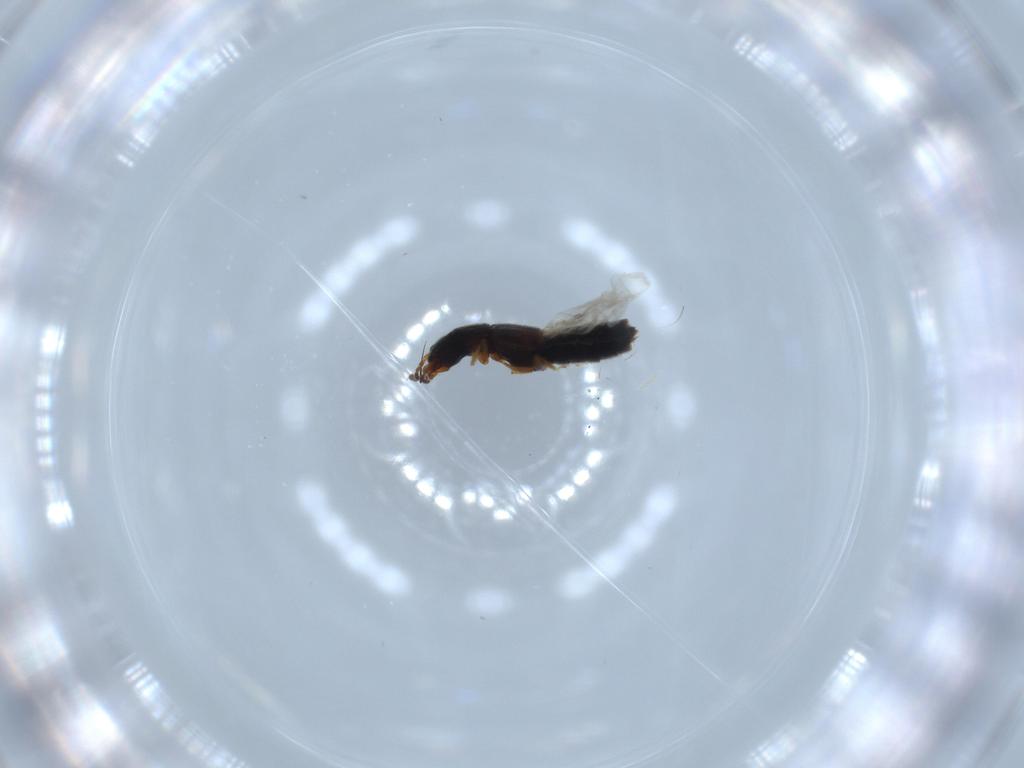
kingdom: Animalia
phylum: Arthropoda
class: Insecta
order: Coleoptera
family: Staphylinidae
